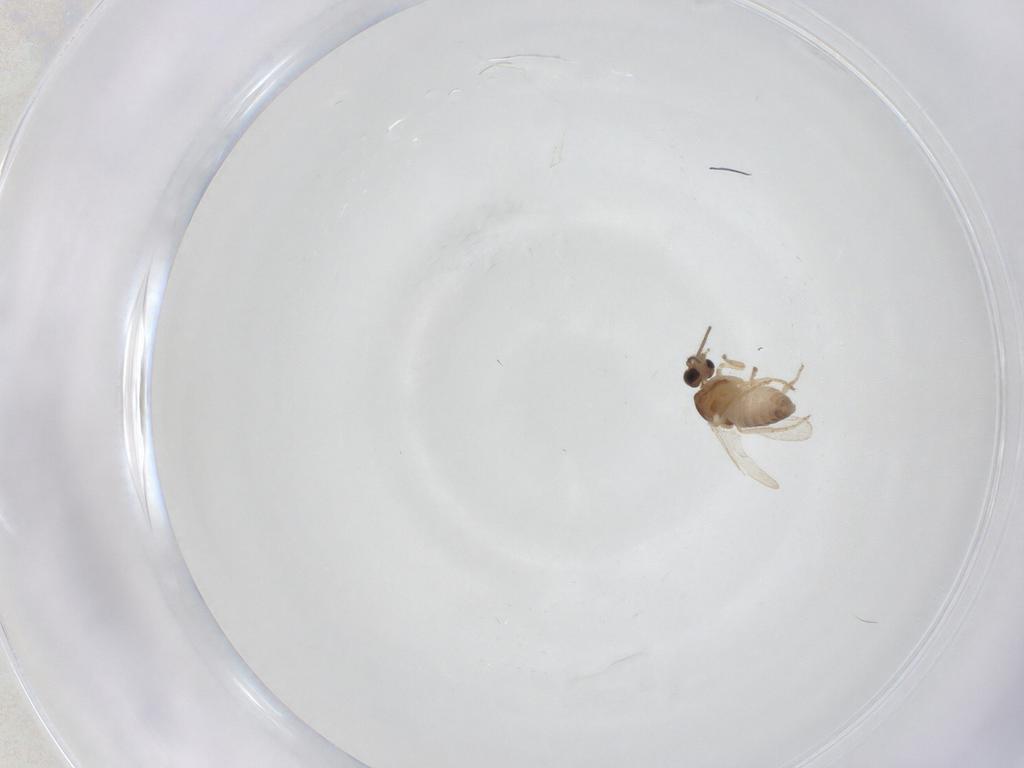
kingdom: Animalia
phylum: Arthropoda
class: Insecta
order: Diptera
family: Ceratopogonidae
